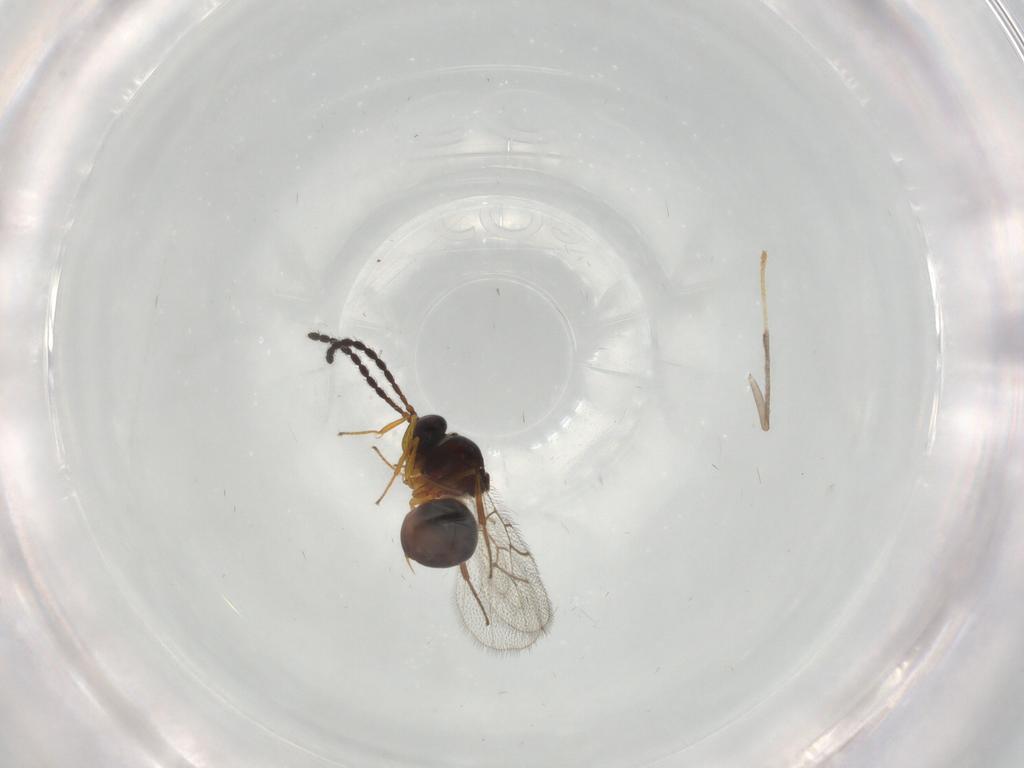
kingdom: Animalia
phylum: Arthropoda
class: Insecta
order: Hymenoptera
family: Figitidae
